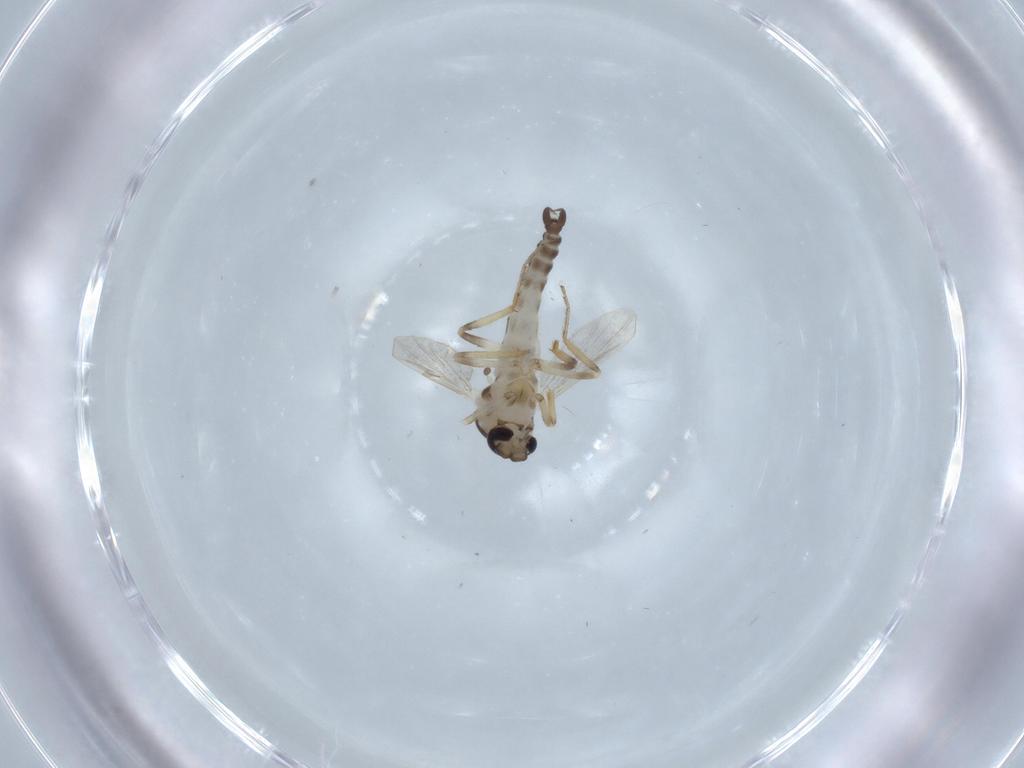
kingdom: Animalia
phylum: Arthropoda
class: Insecta
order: Diptera
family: Ceratopogonidae
